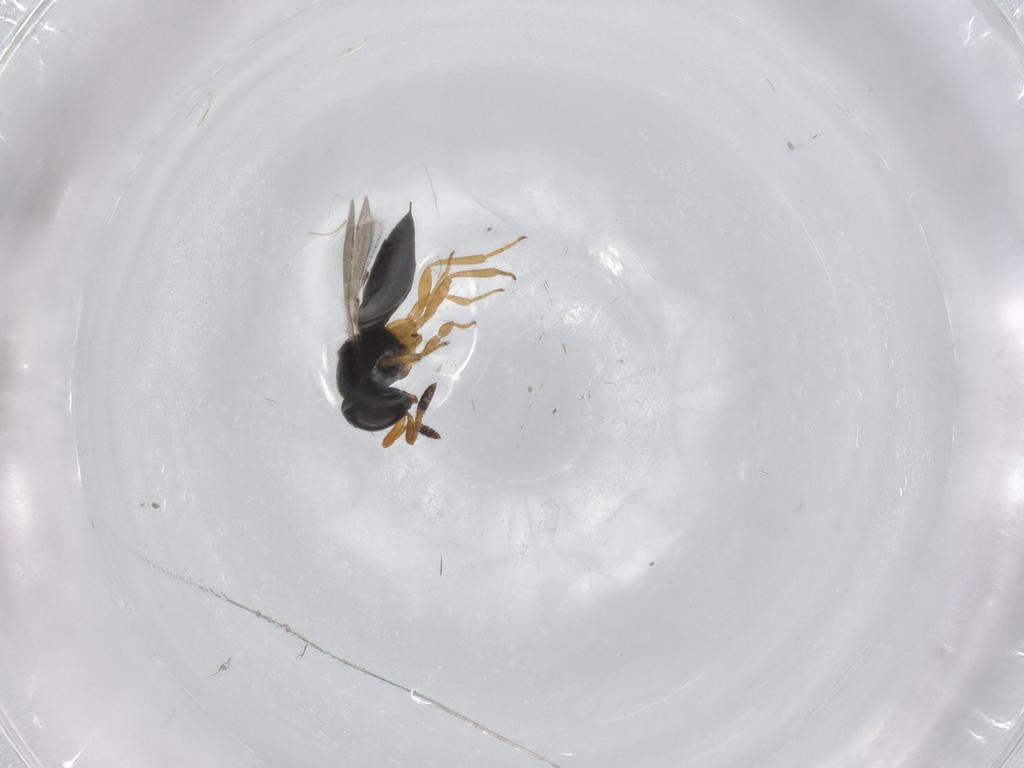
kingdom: Animalia
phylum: Arthropoda
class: Insecta
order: Hymenoptera
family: Scelionidae
